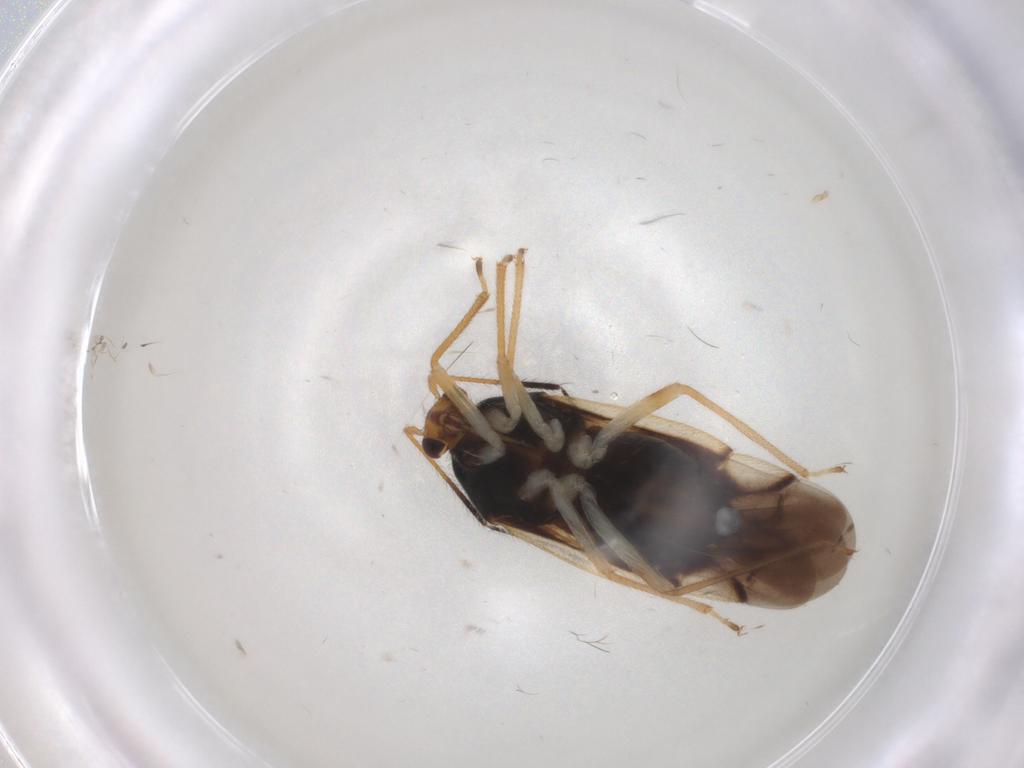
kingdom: Animalia
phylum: Arthropoda
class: Insecta
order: Hemiptera
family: Miridae
